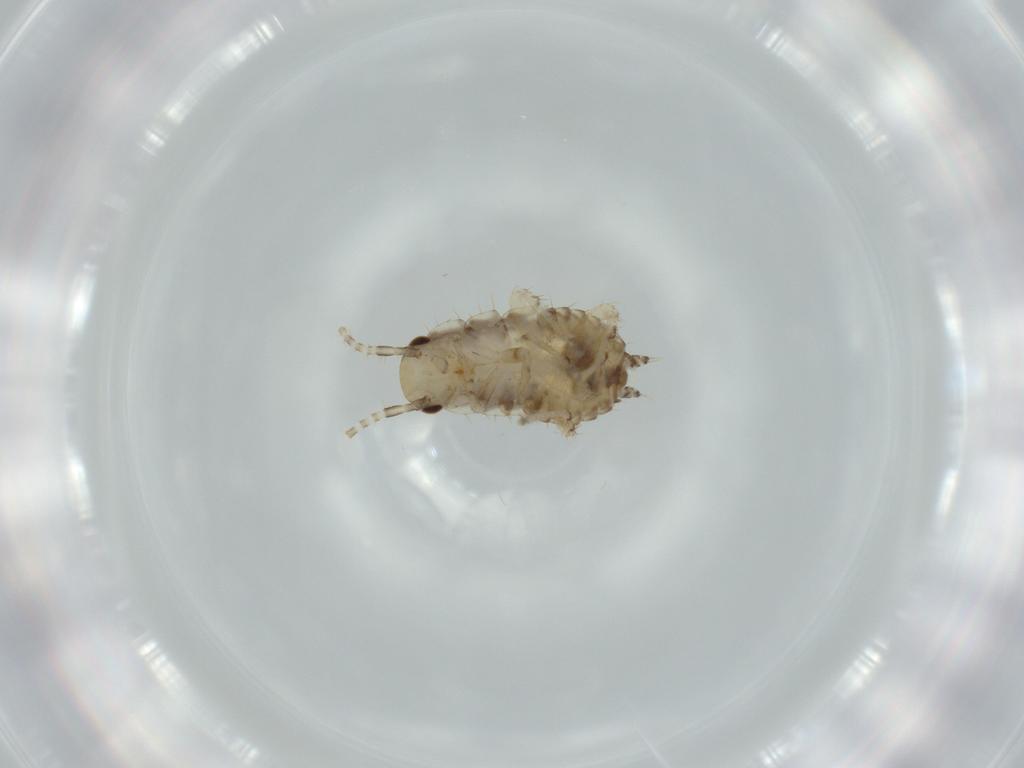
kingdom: Animalia
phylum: Arthropoda
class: Insecta
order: Blattodea
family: Ectobiidae
